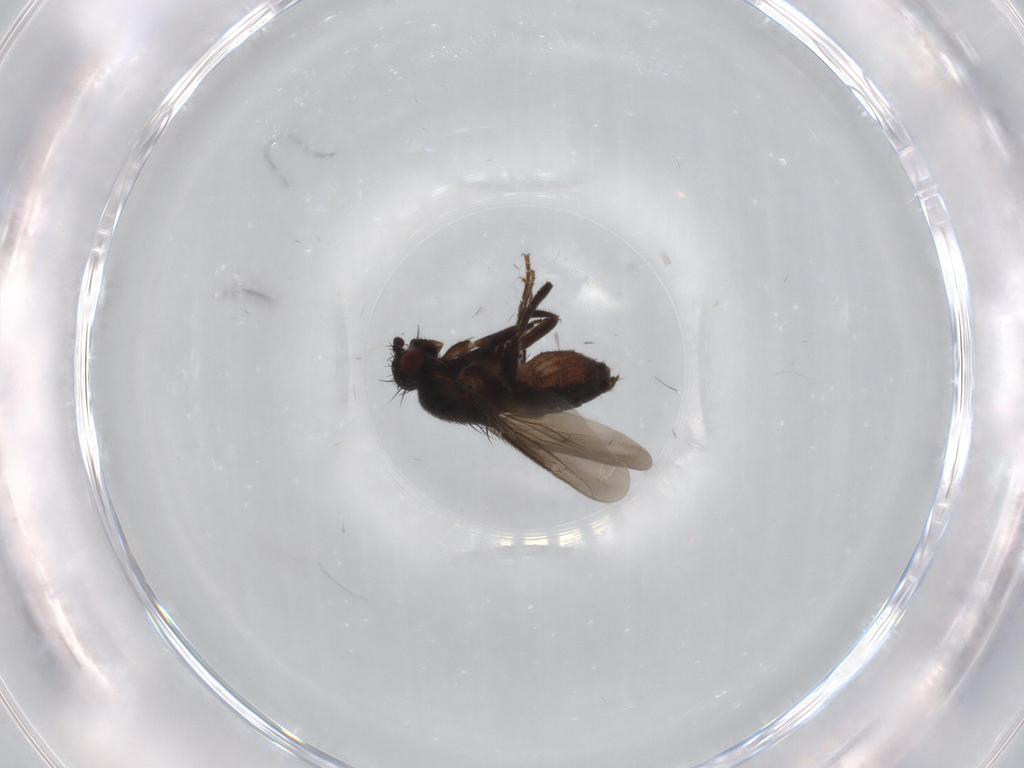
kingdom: Animalia
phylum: Arthropoda
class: Insecta
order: Diptera
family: Sphaeroceridae
